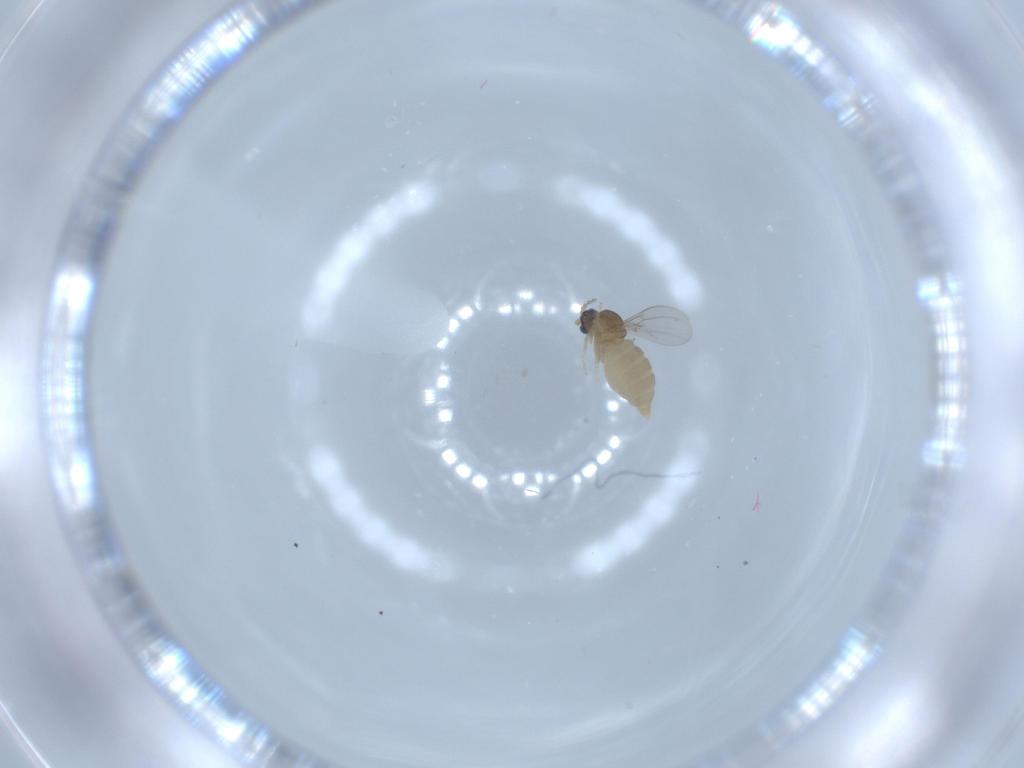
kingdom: Animalia
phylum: Arthropoda
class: Insecta
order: Diptera
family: Cecidomyiidae
